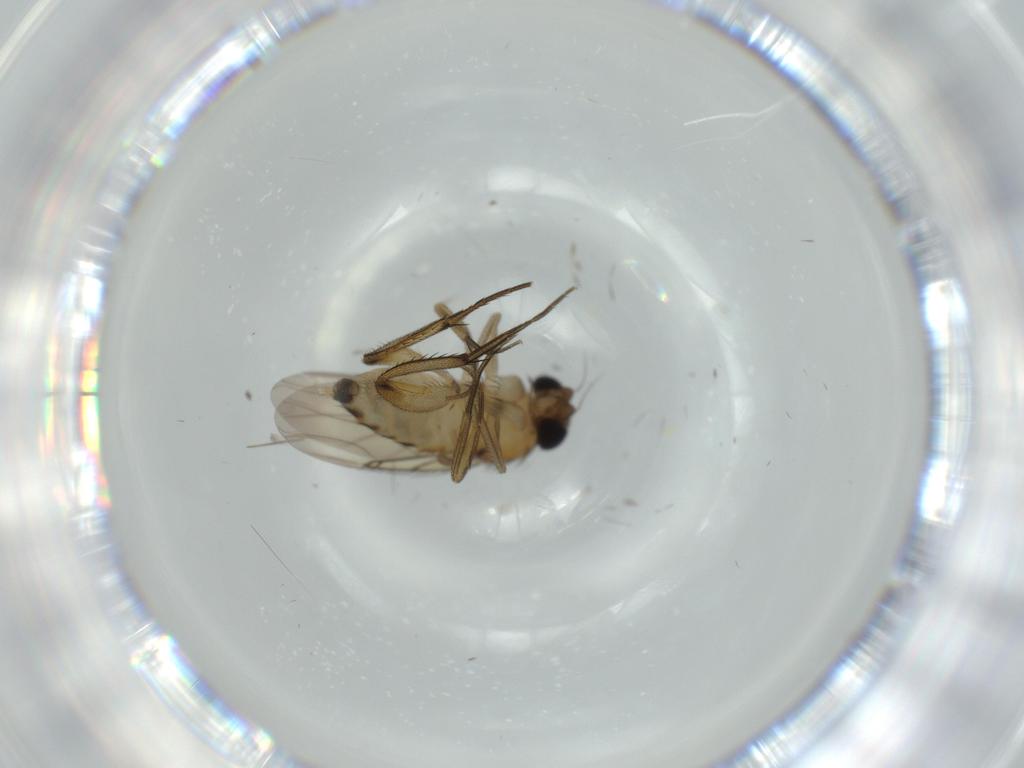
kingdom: Animalia
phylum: Arthropoda
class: Insecta
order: Diptera
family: Phoridae
